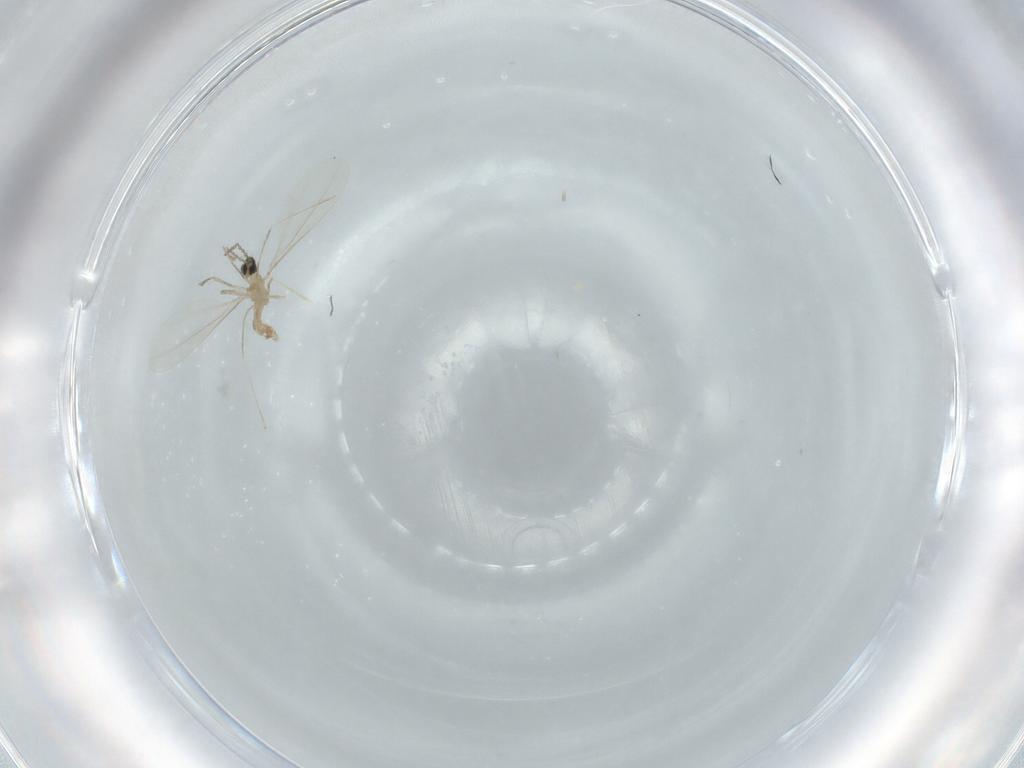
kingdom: Animalia
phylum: Arthropoda
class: Insecta
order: Diptera
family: Cecidomyiidae
